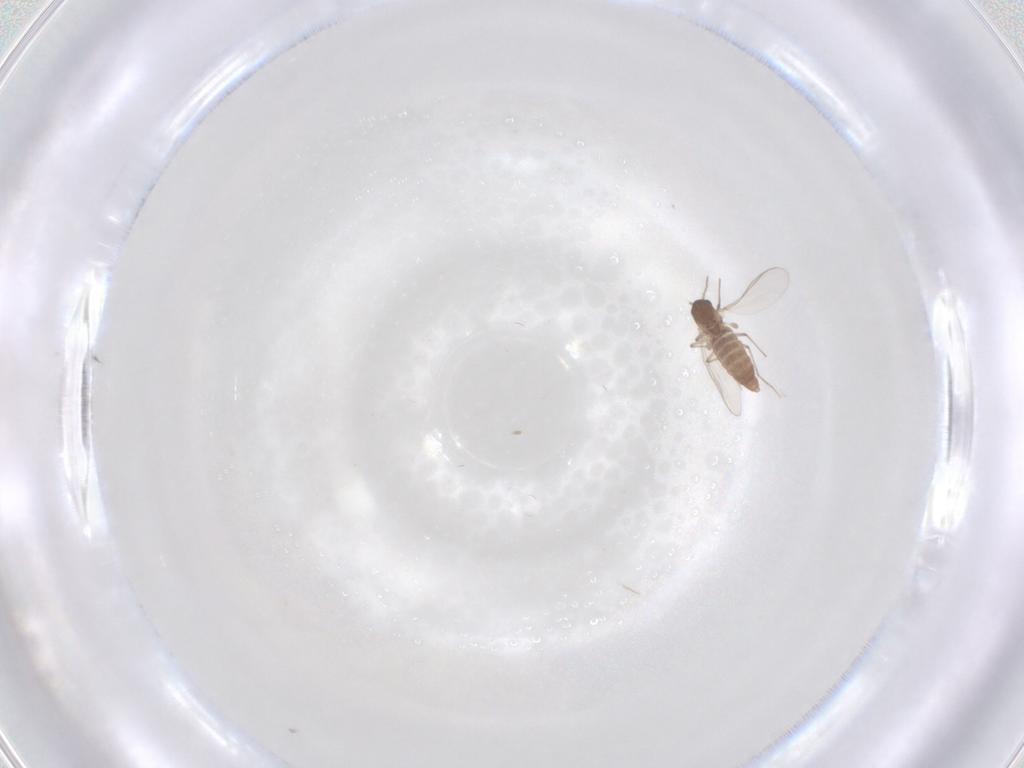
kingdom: Animalia
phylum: Arthropoda
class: Insecta
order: Diptera
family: Chironomidae
